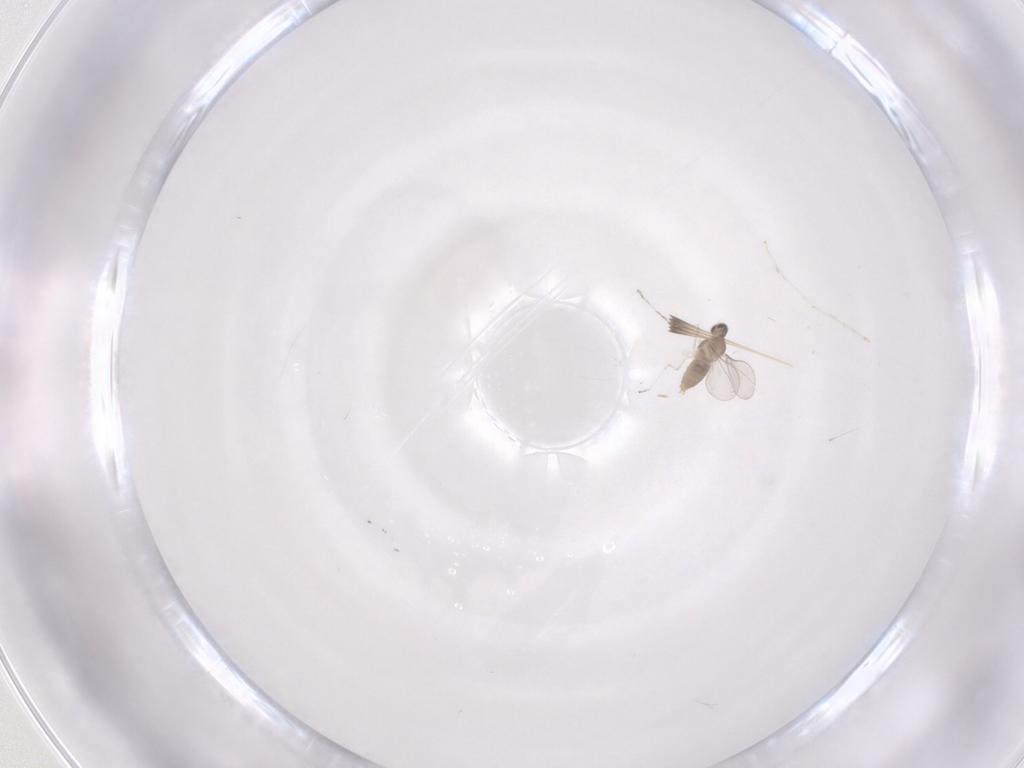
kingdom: Animalia
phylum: Arthropoda
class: Insecta
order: Diptera
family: Cecidomyiidae
